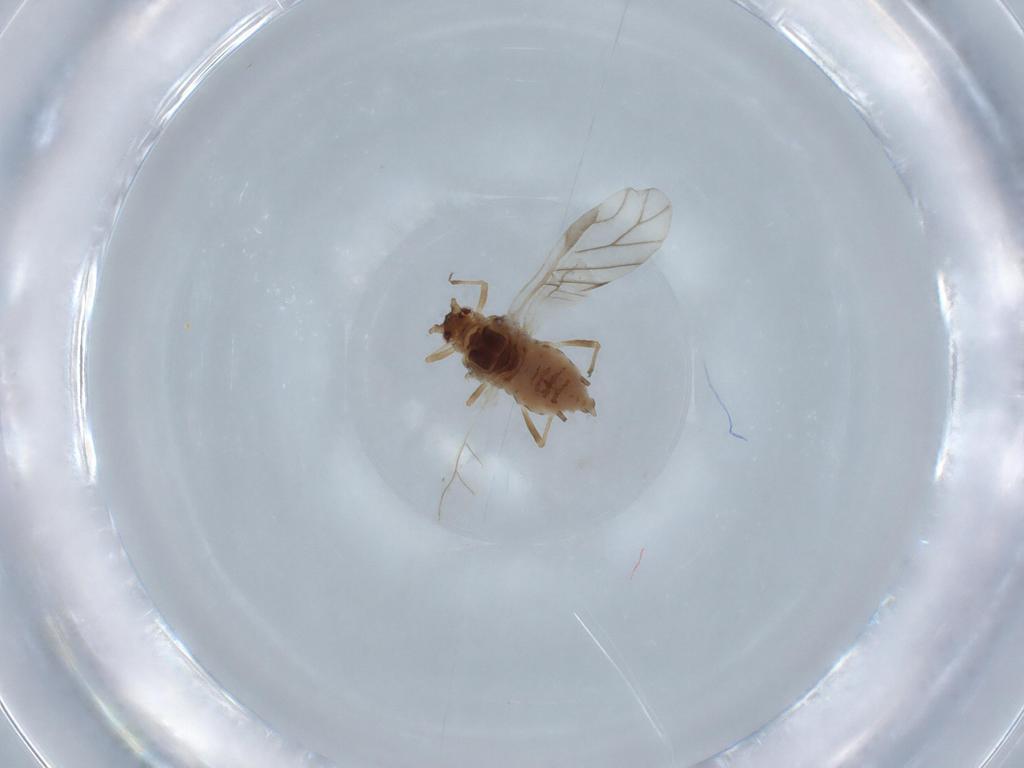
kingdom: Animalia
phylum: Arthropoda
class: Insecta
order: Hemiptera
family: Aphididae
